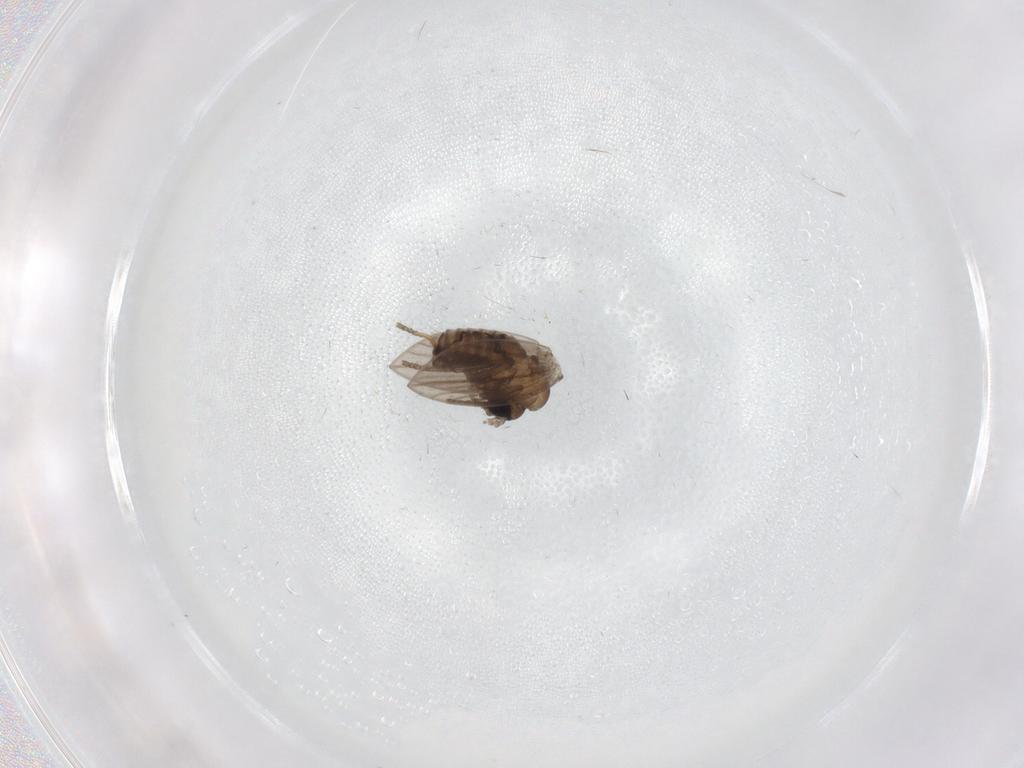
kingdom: Animalia
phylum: Arthropoda
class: Insecta
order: Diptera
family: Psychodidae
